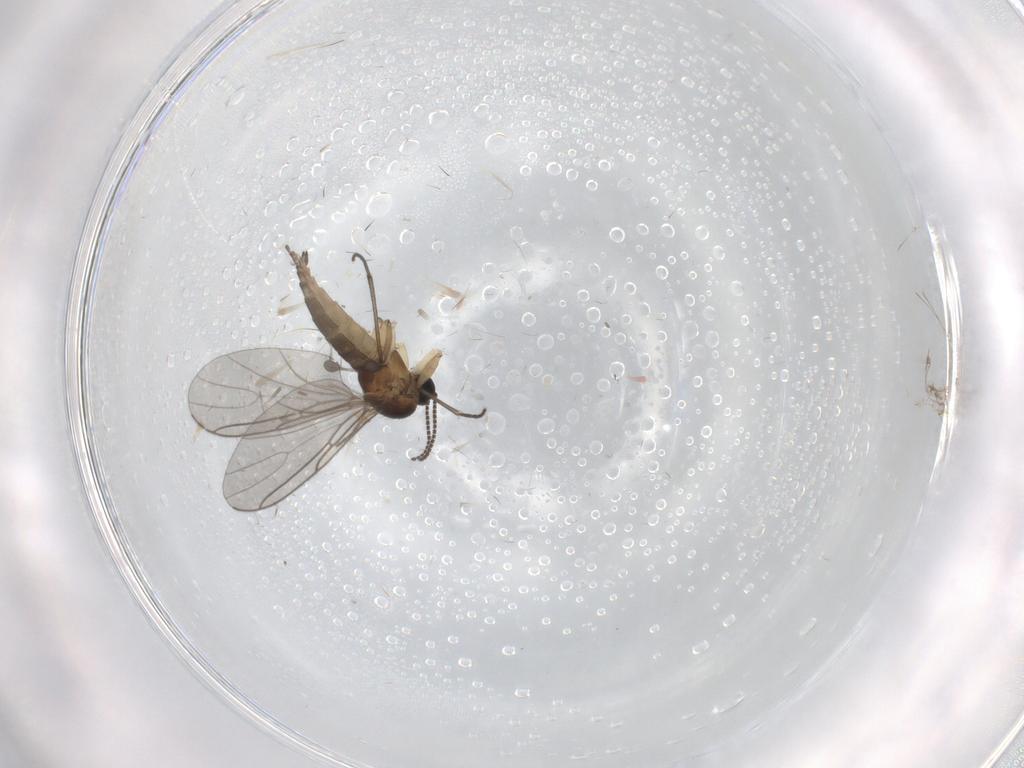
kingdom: Animalia
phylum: Arthropoda
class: Insecta
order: Diptera
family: Sciaridae
